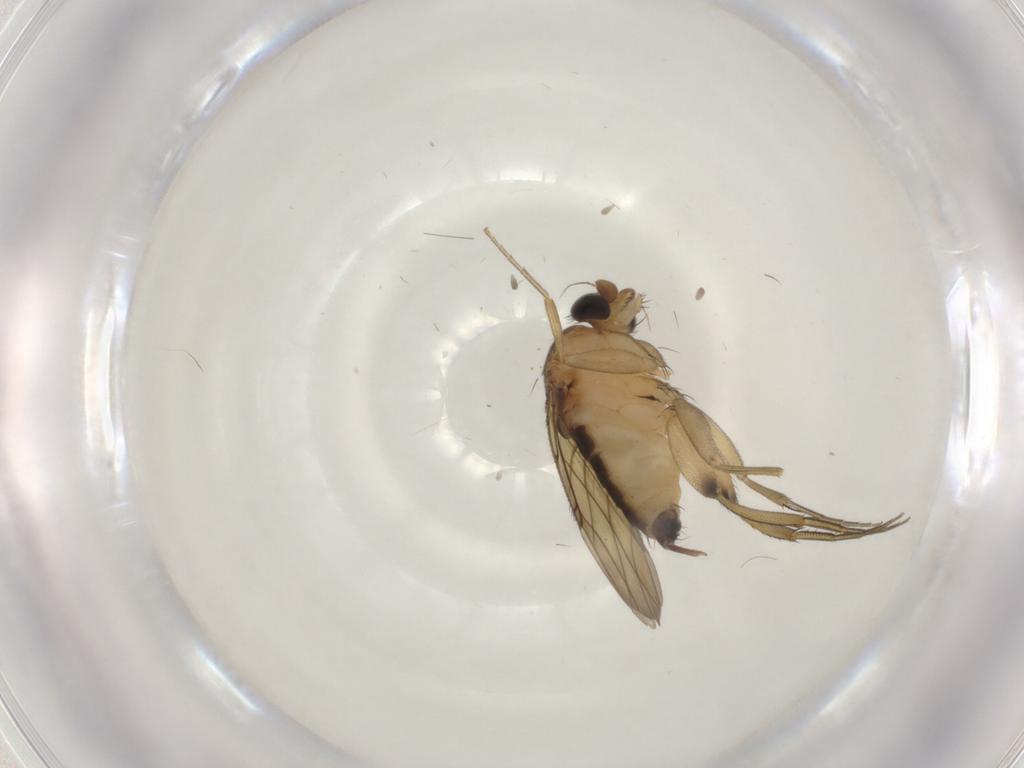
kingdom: Animalia
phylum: Arthropoda
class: Insecta
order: Diptera
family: Phoridae
